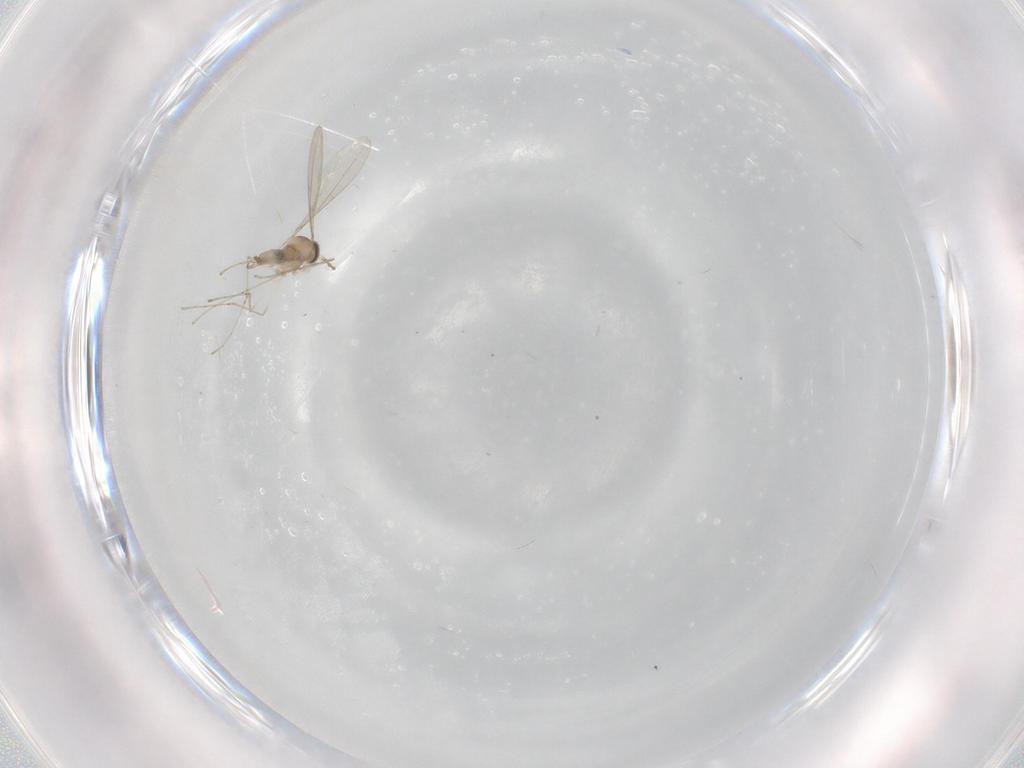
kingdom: Animalia
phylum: Arthropoda
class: Insecta
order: Diptera
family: Cecidomyiidae
